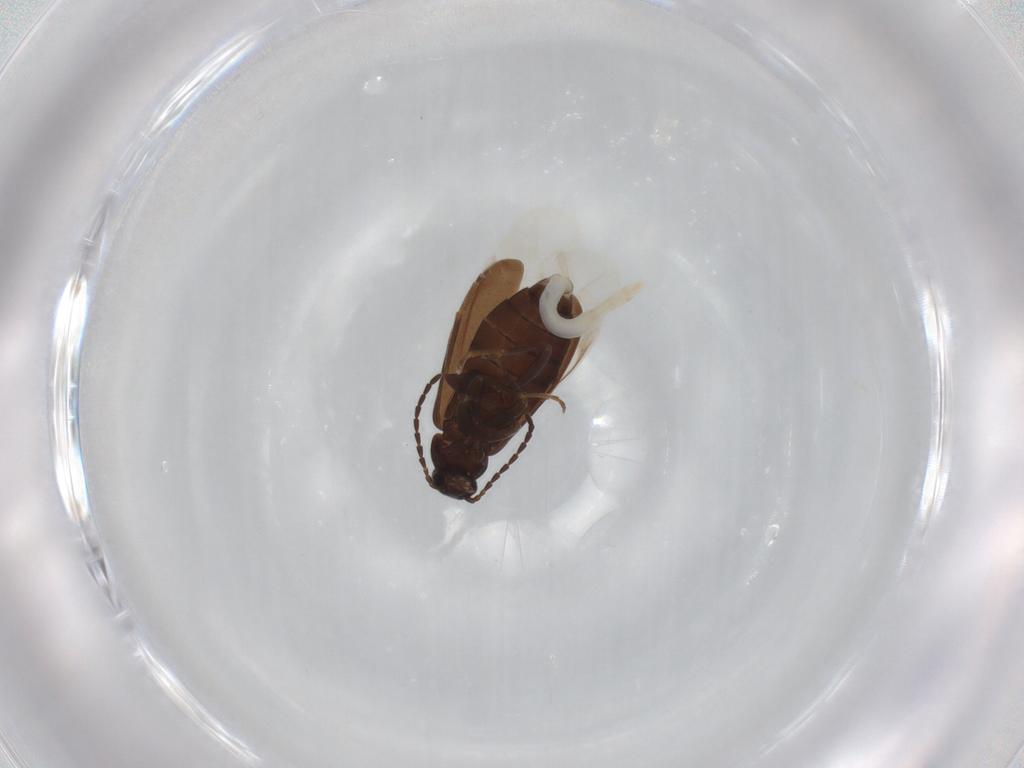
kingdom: Animalia
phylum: Arthropoda
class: Insecta
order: Coleoptera
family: Scraptiidae
